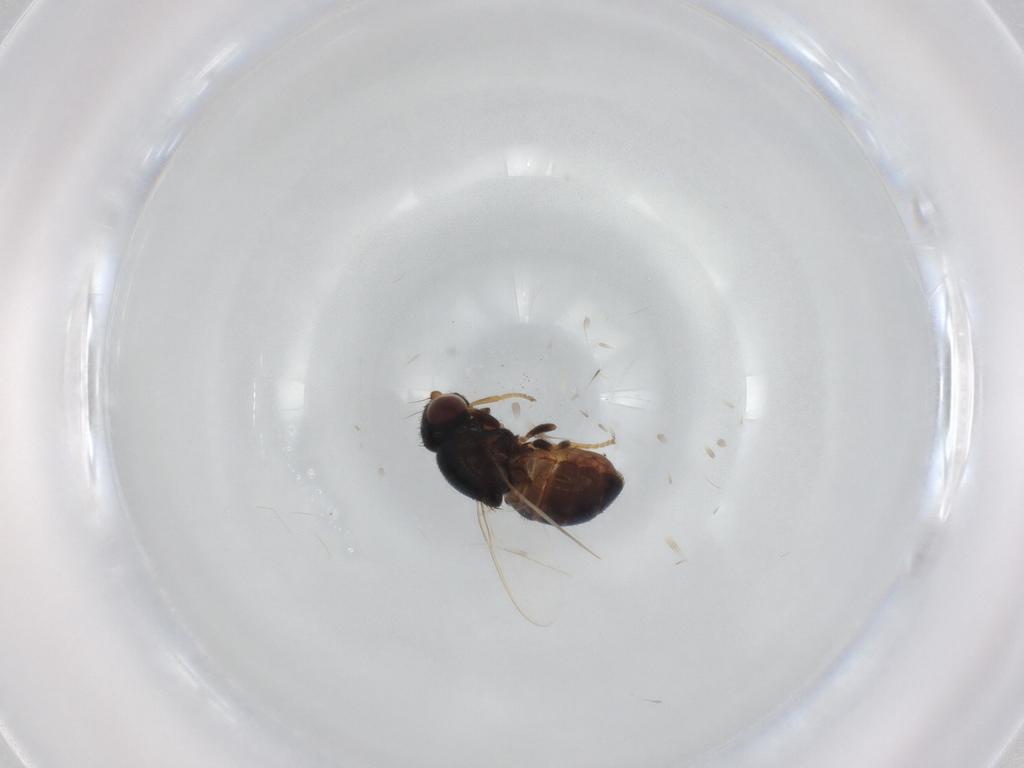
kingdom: Animalia
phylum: Arthropoda
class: Insecta
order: Diptera
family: Chloropidae
